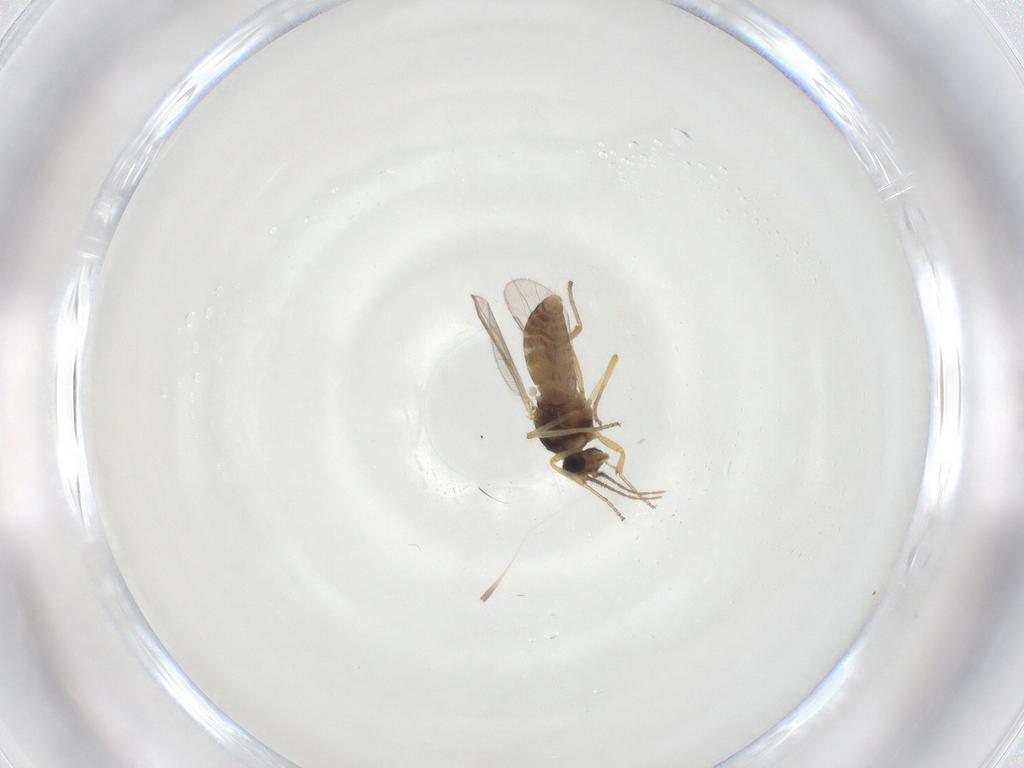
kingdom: Animalia
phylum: Arthropoda
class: Insecta
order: Diptera
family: Ceratopogonidae
